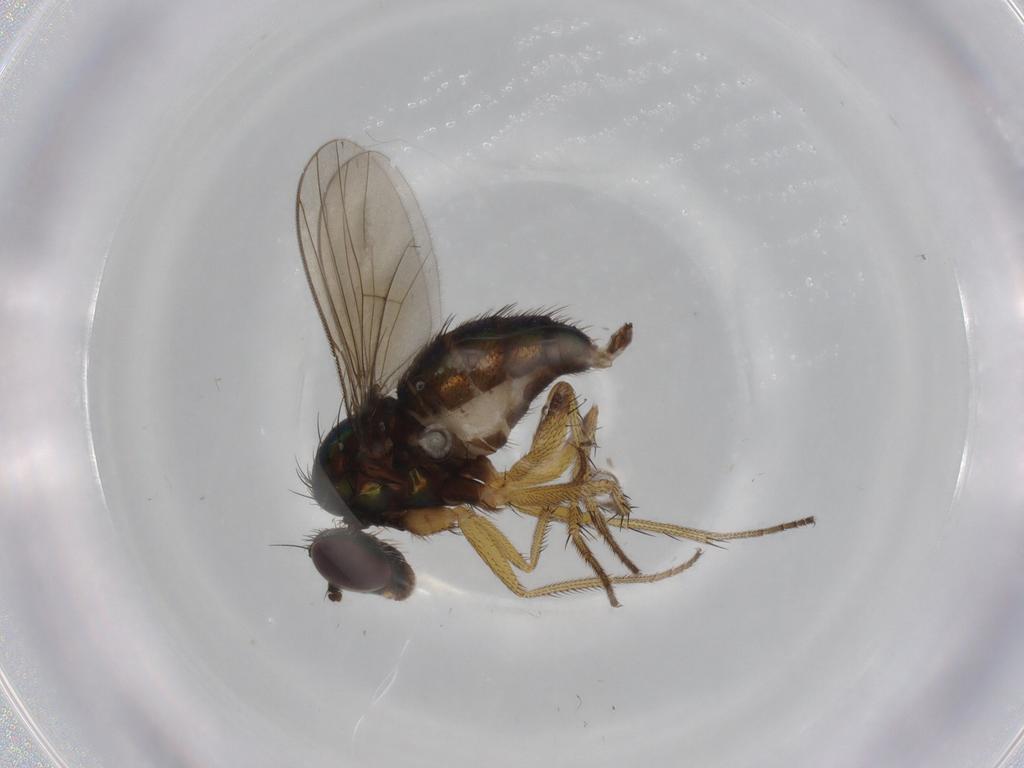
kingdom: Animalia
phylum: Arthropoda
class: Insecta
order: Diptera
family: Dolichopodidae
